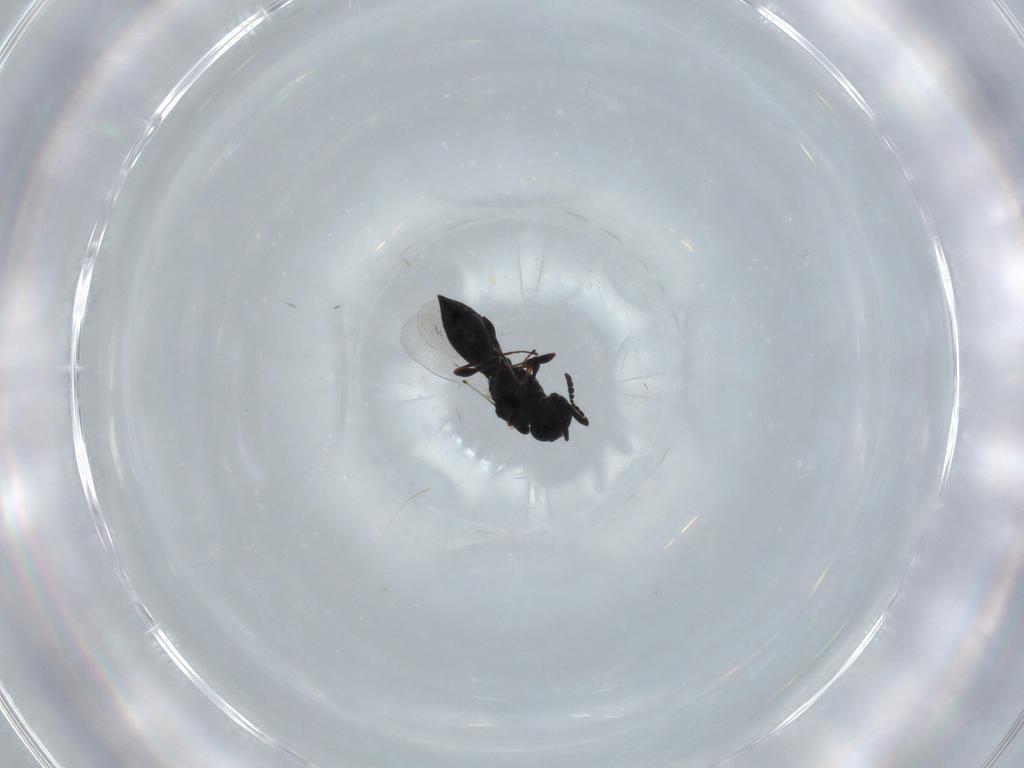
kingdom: Animalia
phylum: Arthropoda
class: Insecta
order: Hymenoptera
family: Platygastridae
